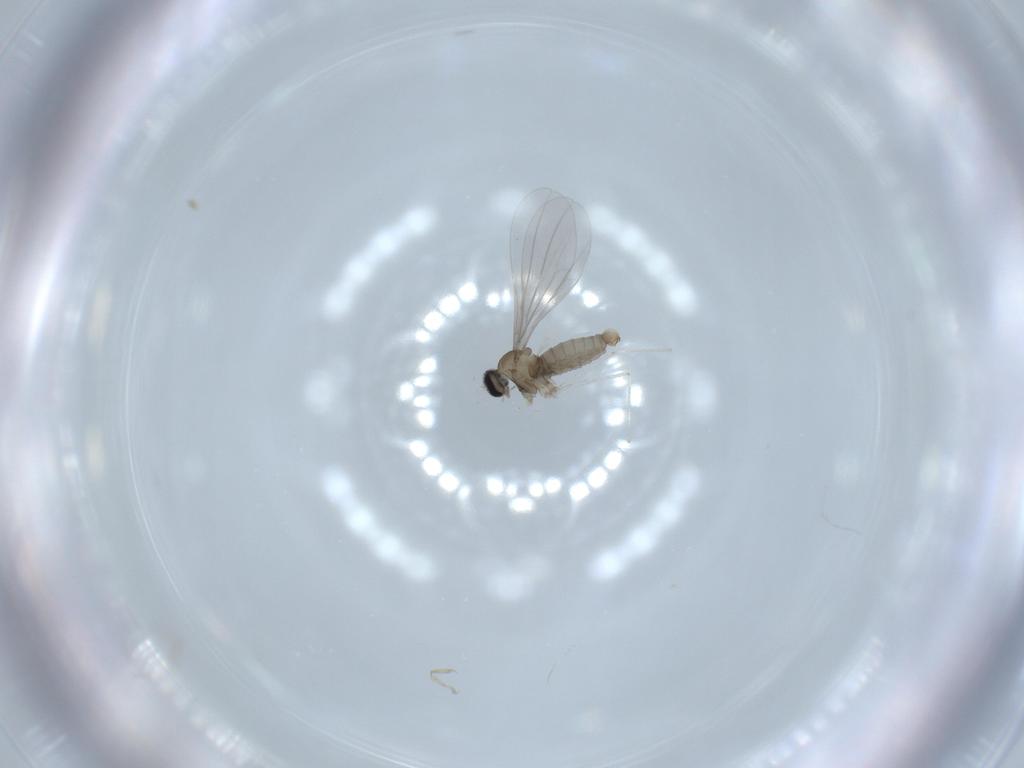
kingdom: Animalia
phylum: Arthropoda
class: Insecta
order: Diptera
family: Cecidomyiidae
